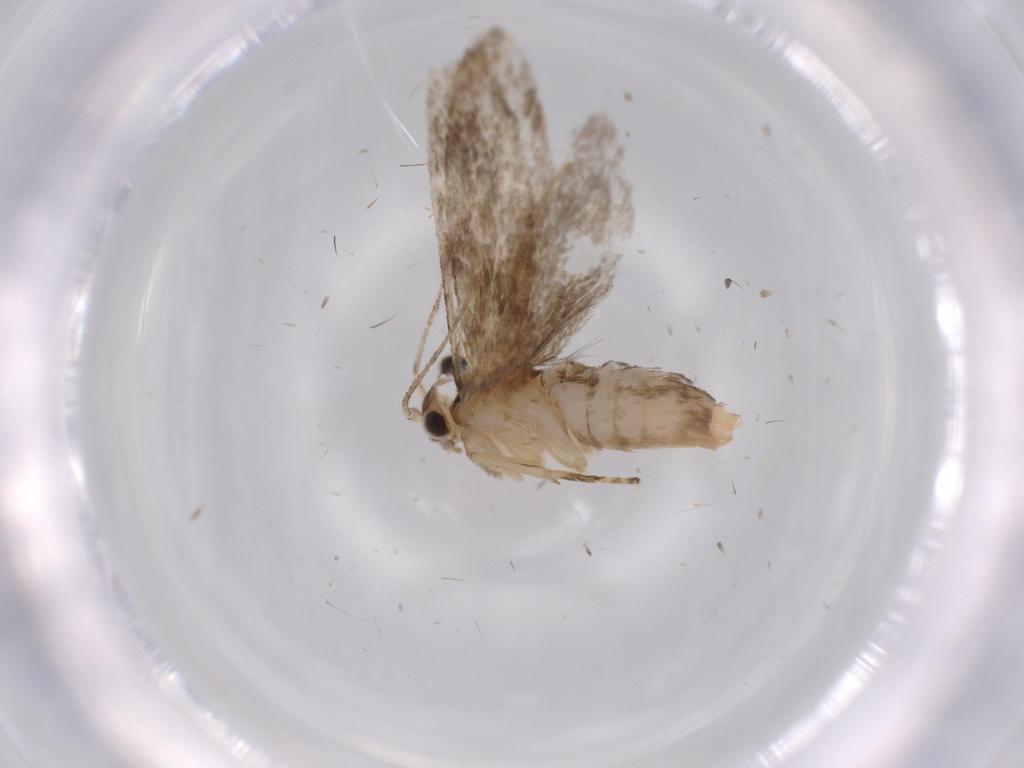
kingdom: Animalia
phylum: Arthropoda
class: Insecta
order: Lepidoptera
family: Tineidae
